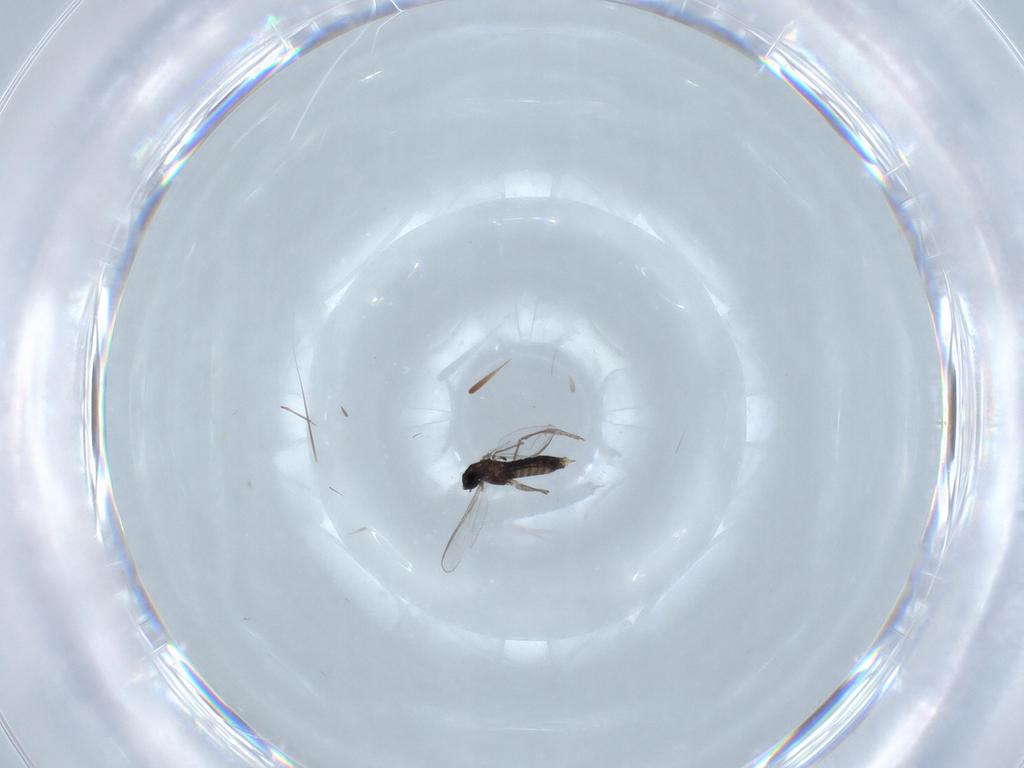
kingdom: Animalia
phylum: Arthropoda
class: Insecta
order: Diptera
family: Chironomidae
